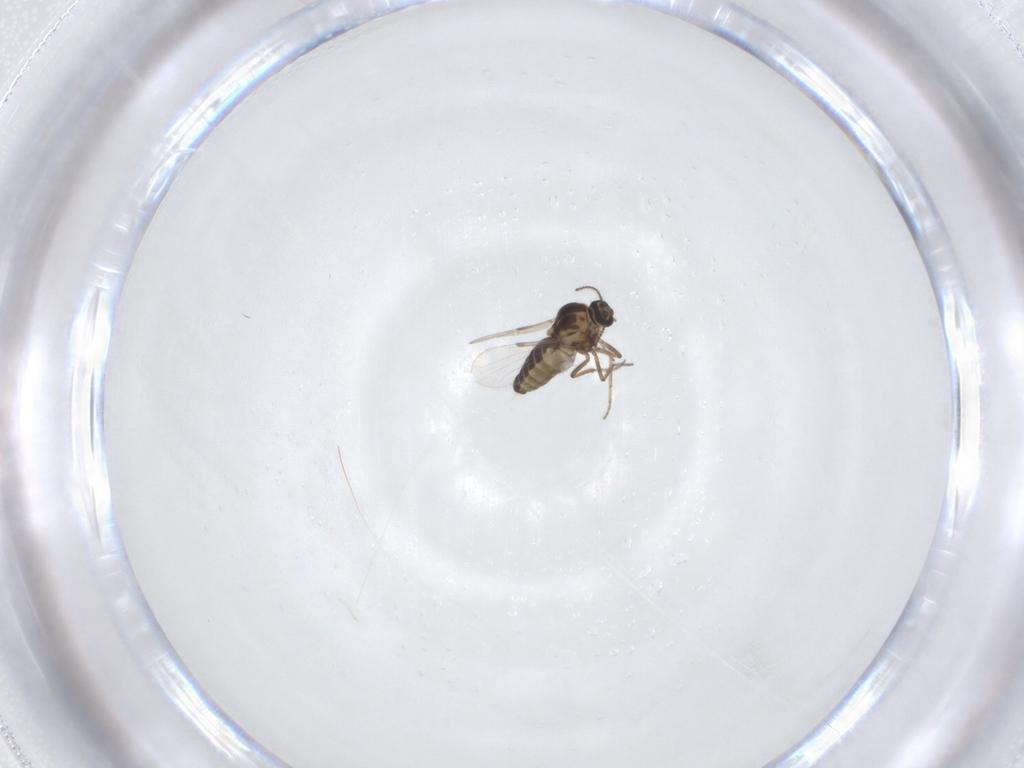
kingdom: Animalia
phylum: Arthropoda
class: Insecta
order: Diptera
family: Ceratopogonidae
